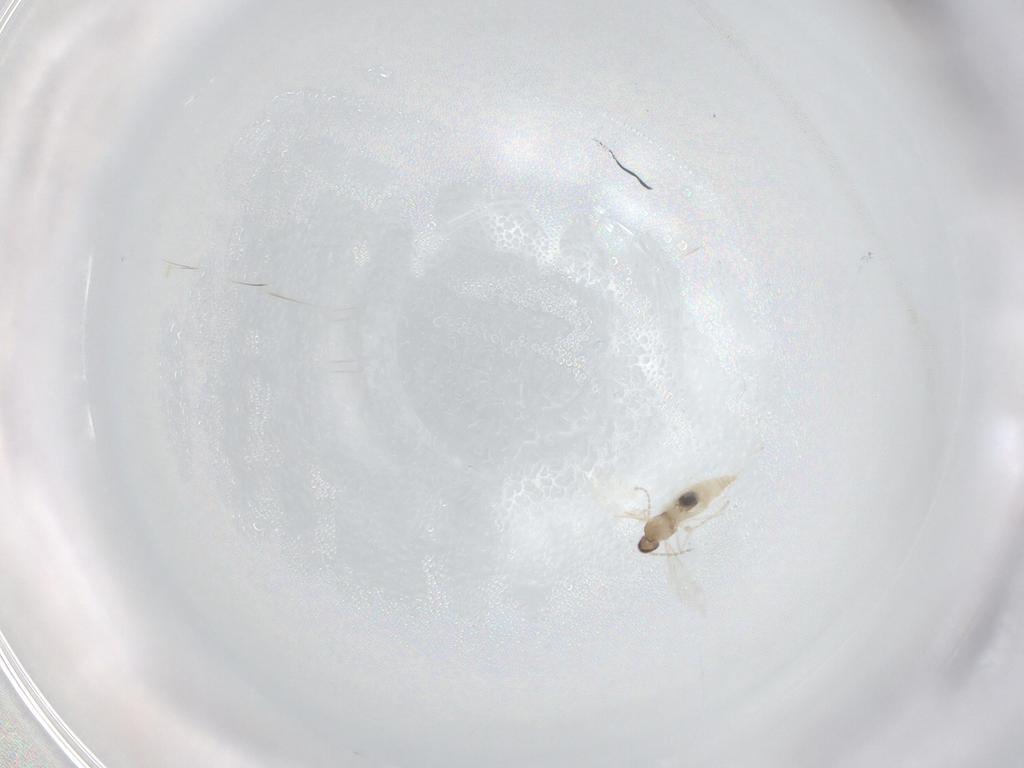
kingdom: Animalia
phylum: Arthropoda
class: Insecta
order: Diptera
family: Cecidomyiidae
